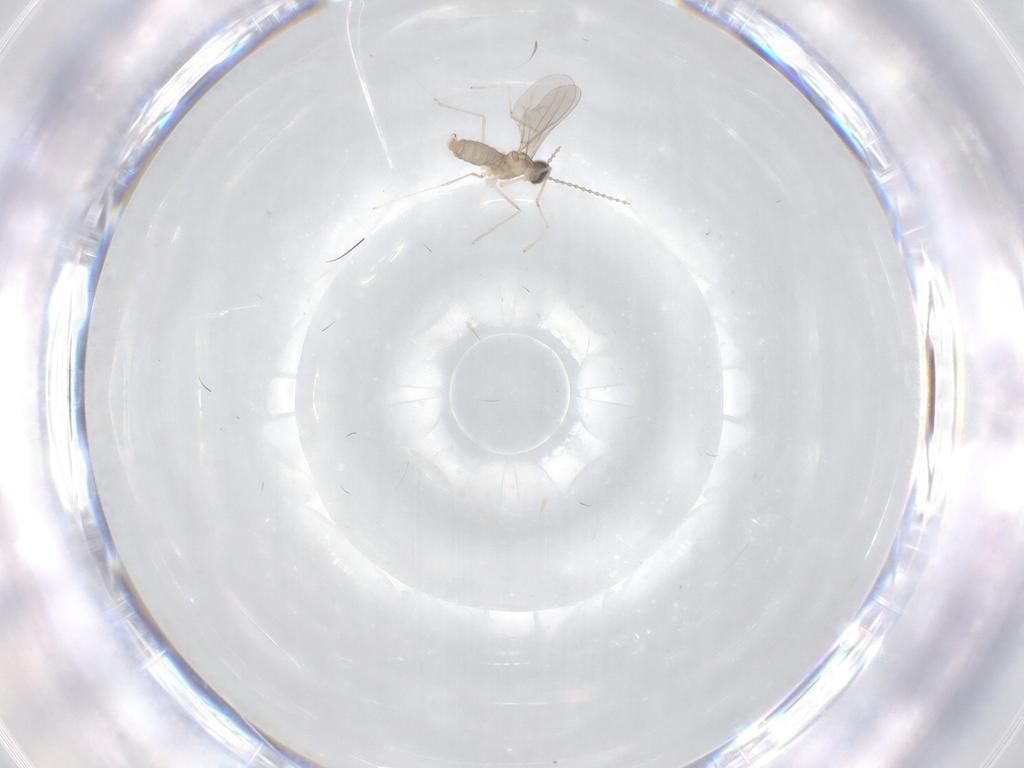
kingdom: Animalia
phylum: Arthropoda
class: Insecta
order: Diptera
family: Cecidomyiidae
